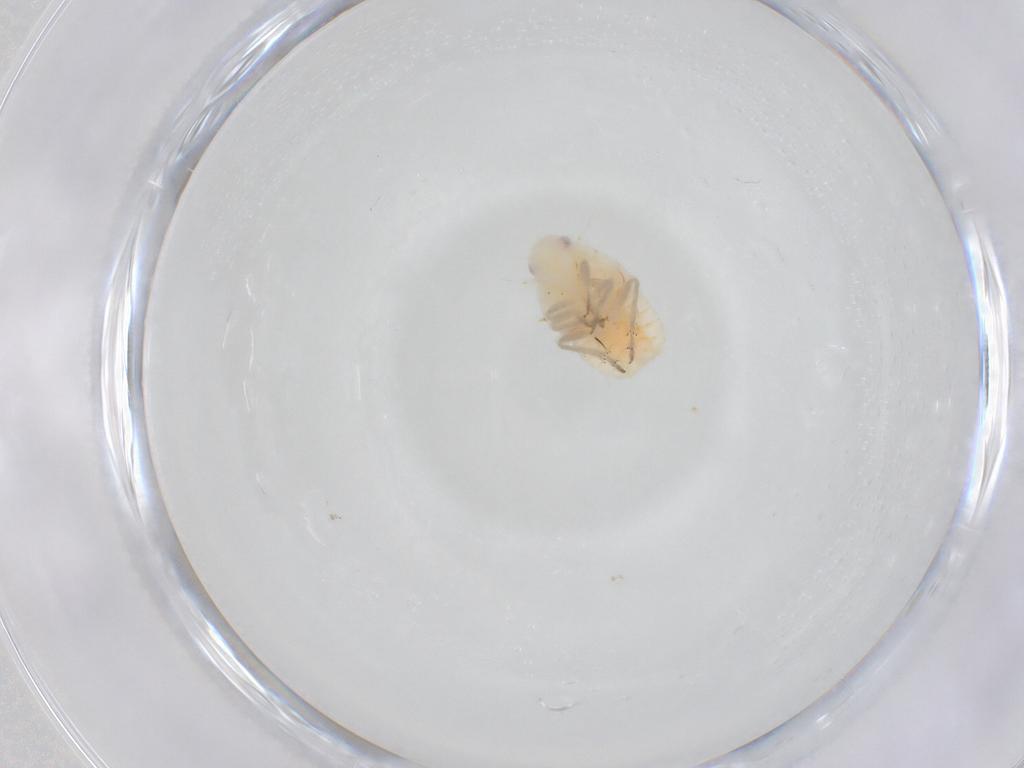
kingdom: Animalia
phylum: Arthropoda
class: Insecta
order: Hemiptera
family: Flatidae
